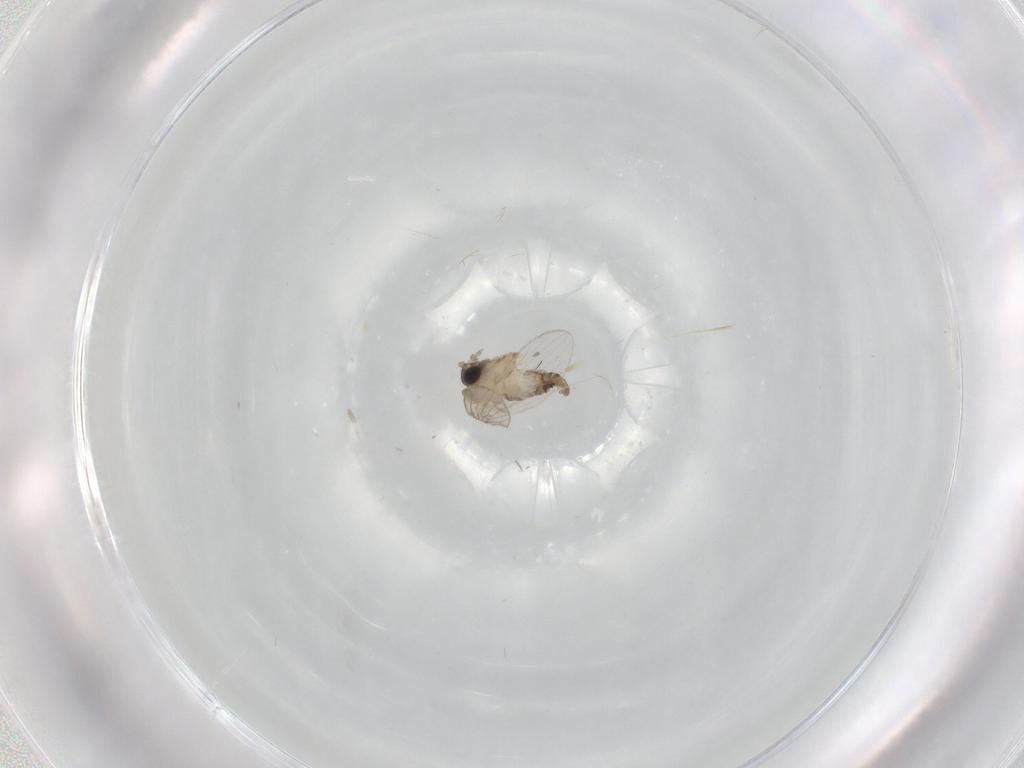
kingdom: Animalia
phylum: Arthropoda
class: Insecta
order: Diptera
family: Psychodidae
